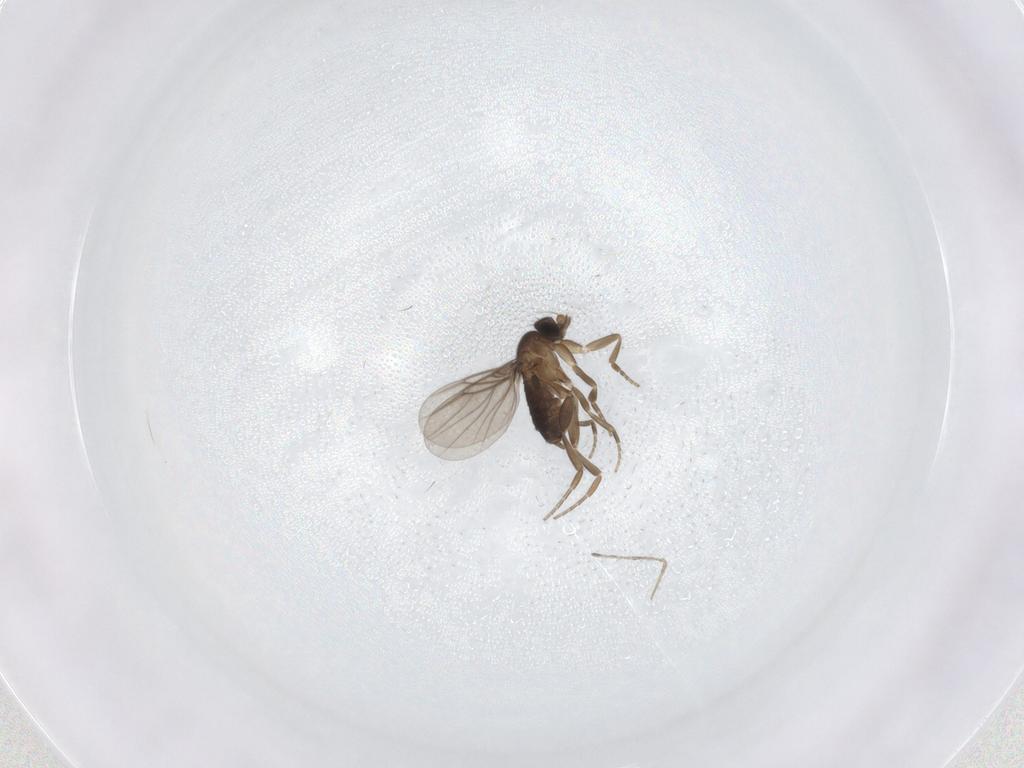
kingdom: Animalia
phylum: Arthropoda
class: Insecta
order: Diptera
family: Phoridae
